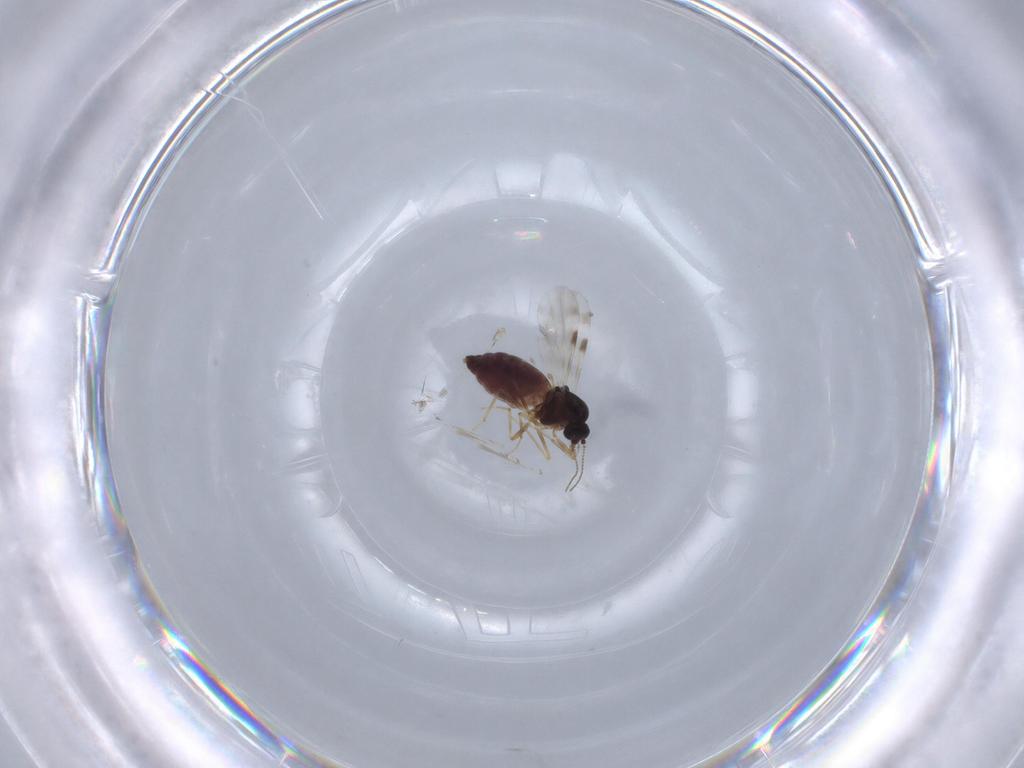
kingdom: Animalia
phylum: Arthropoda
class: Insecta
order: Diptera
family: Ceratopogonidae
